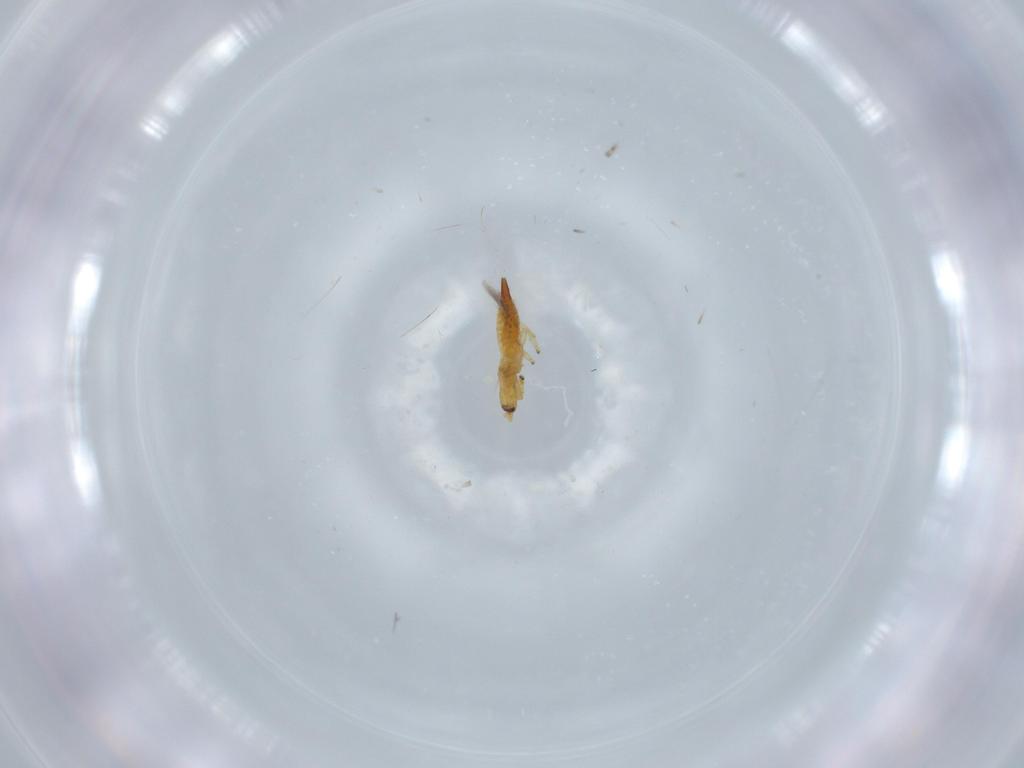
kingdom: Animalia
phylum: Arthropoda
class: Insecta
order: Thysanoptera
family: Phlaeothripidae
